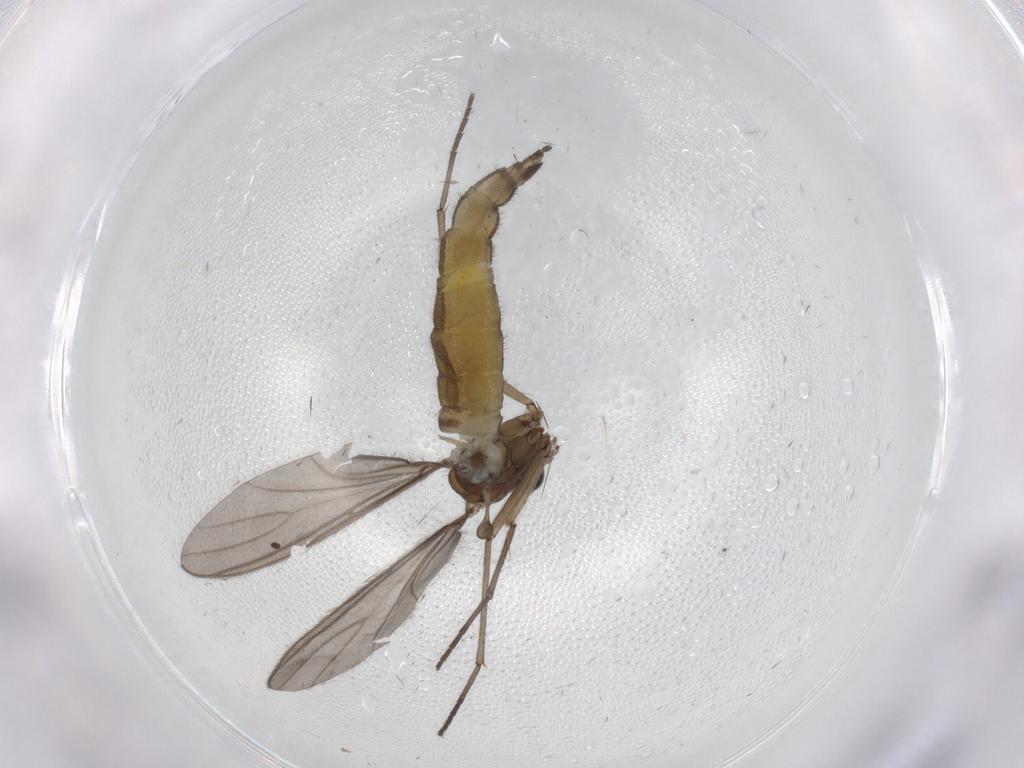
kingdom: Animalia
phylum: Arthropoda
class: Insecta
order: Diptera
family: Sciaridae
